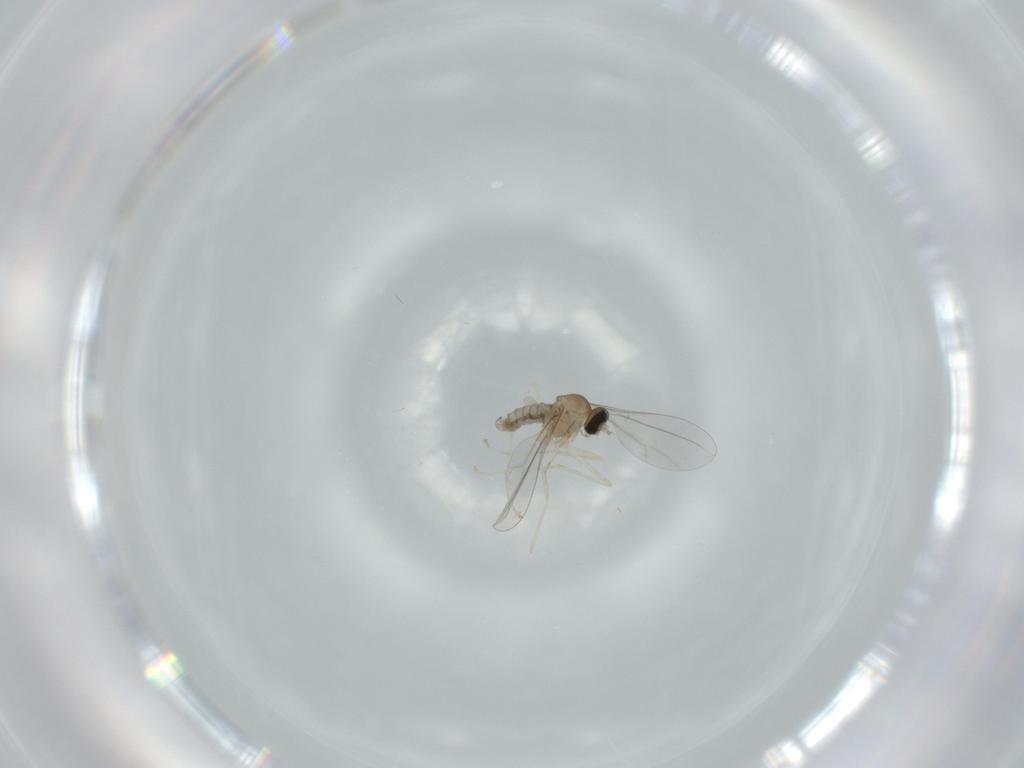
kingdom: Animalia
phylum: Arthropoda
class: Insecta
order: Diptera
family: Cecidomyiidae
